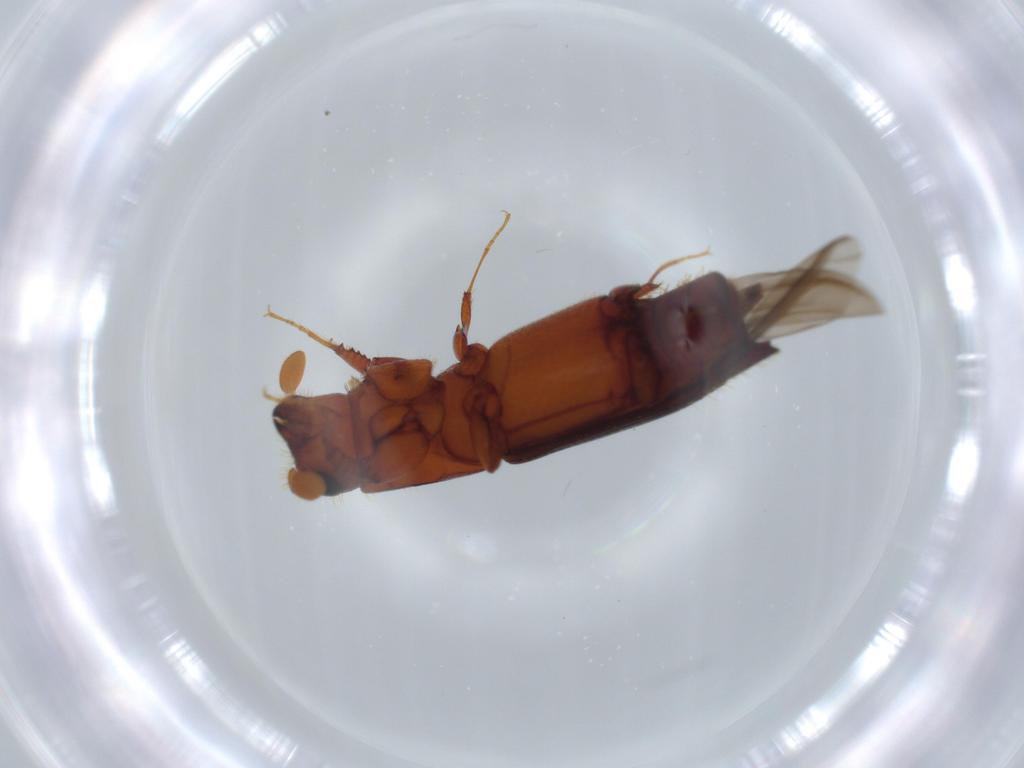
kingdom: Animalia
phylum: Arthropoda
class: Insecta
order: Coleoptera
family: Curculionidae
